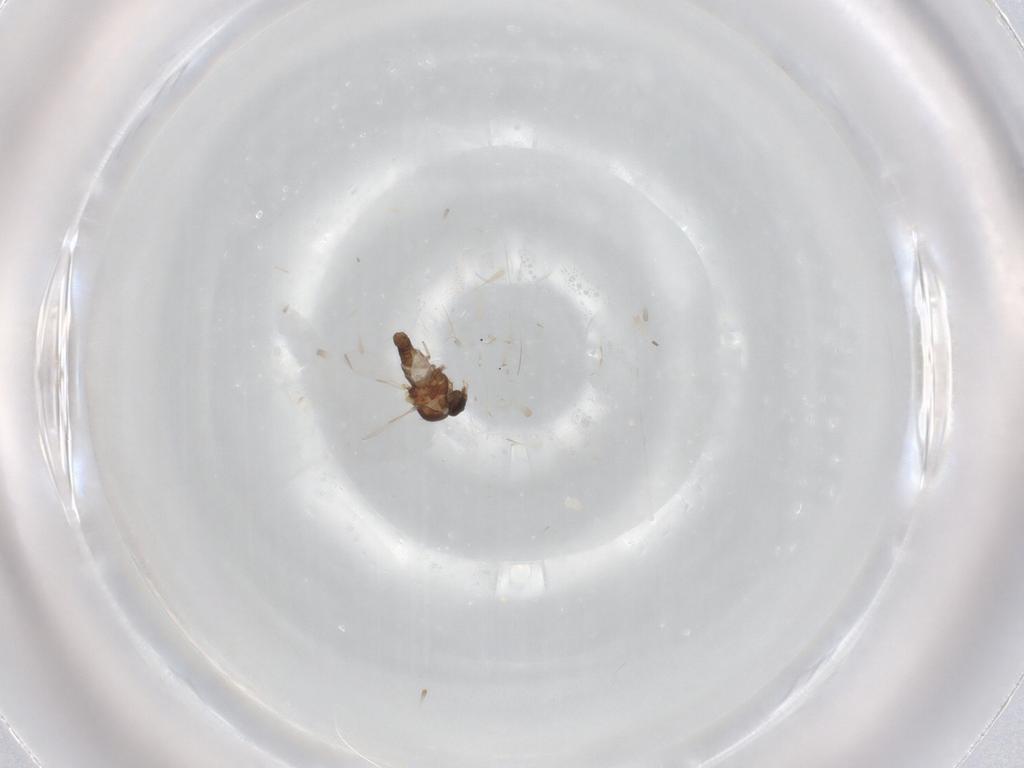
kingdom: Animalia
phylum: Arthropoda
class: Insecta
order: Diptera
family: Ceratopogonidae
